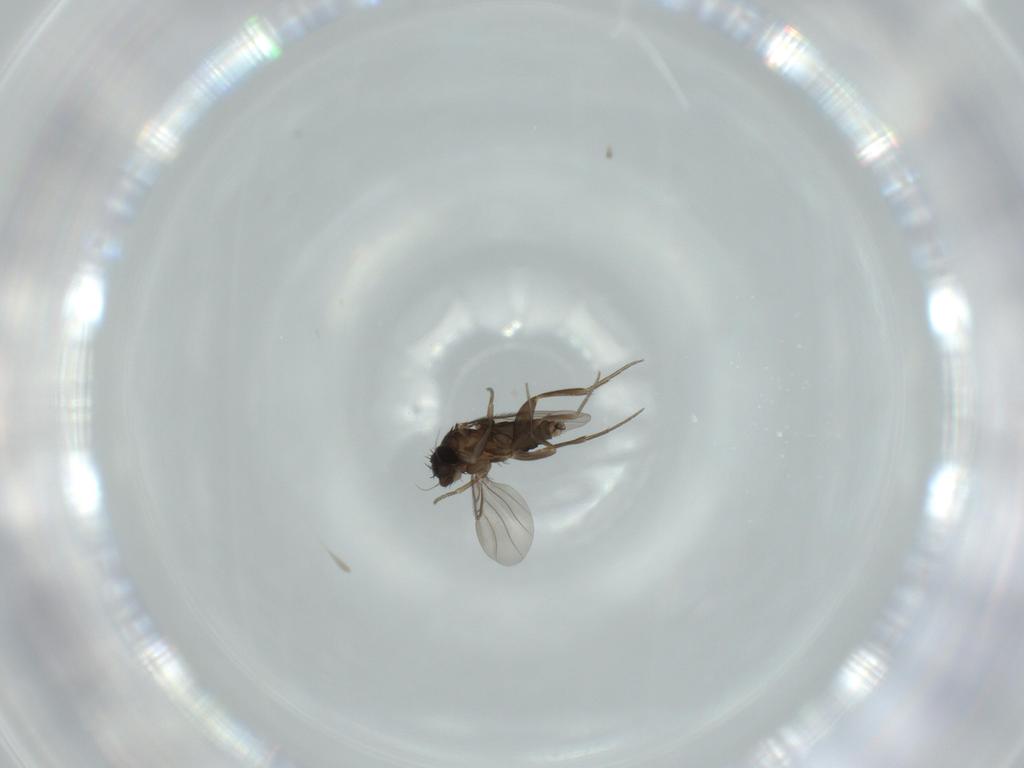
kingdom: Animalia
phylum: Arthropoda
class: Insecta
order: Diptera
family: Phoridae
